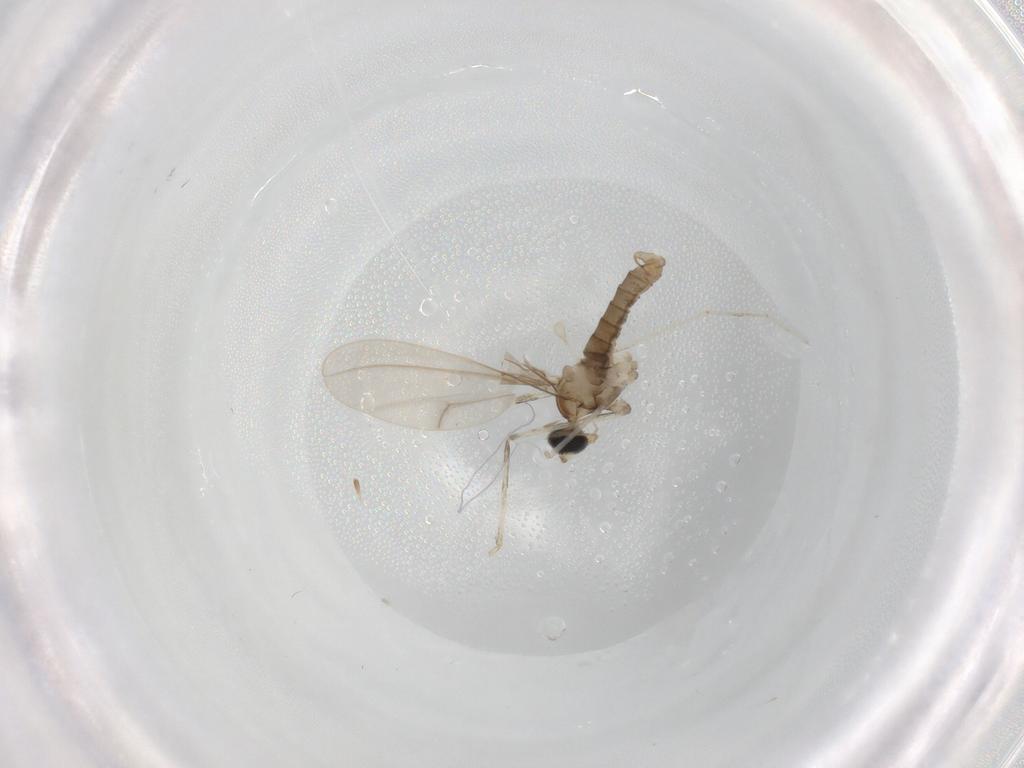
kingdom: Animalia
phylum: Arthropoda
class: Insecta
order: Diptera
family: Cecidomyiidae
